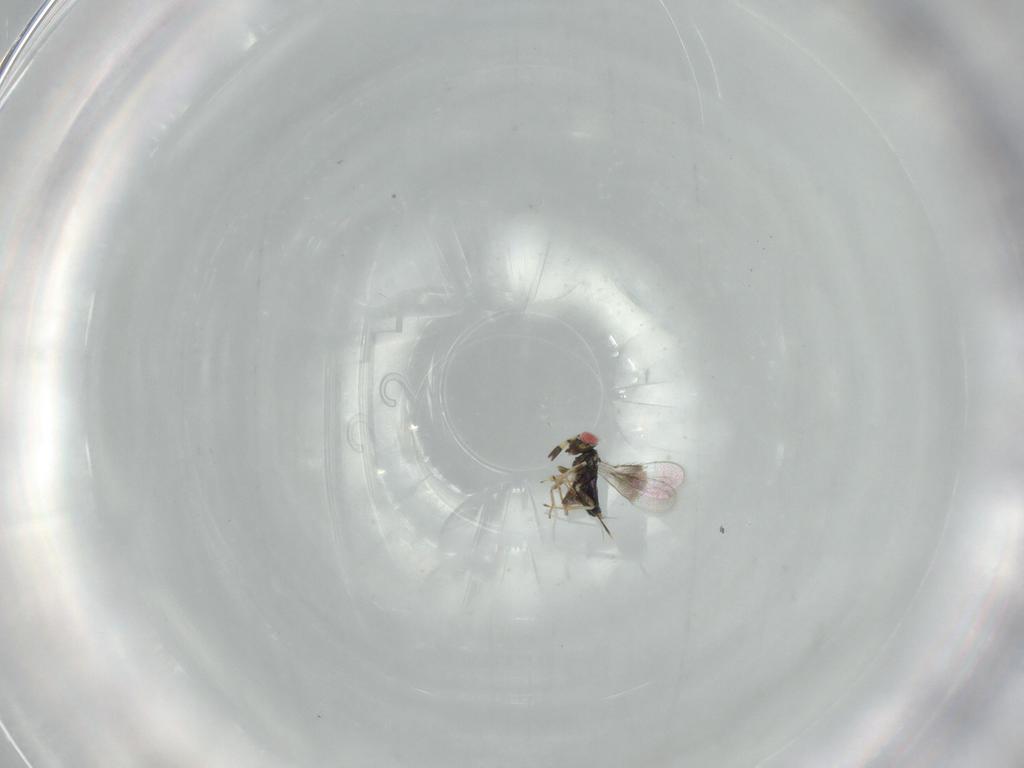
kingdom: Animalia
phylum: Arthropoda
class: Insecta
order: Hymenoptera
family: Azotidae
